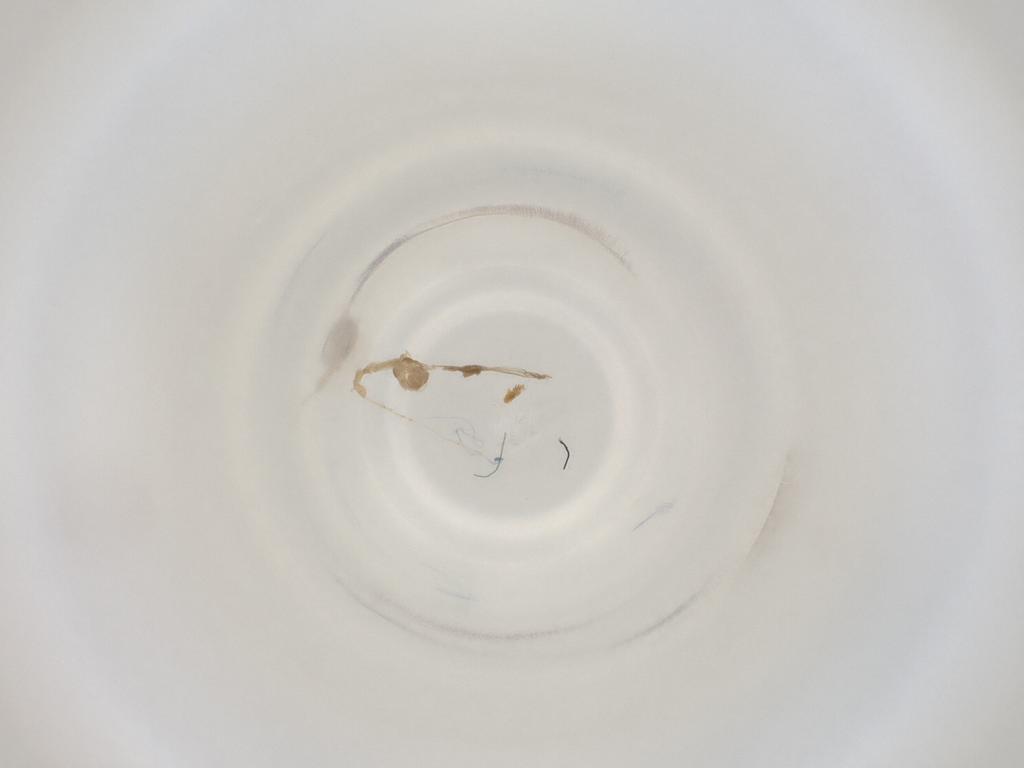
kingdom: Animalia
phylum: Arthropoda
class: Insecta
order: Diptera
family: Cecidomyiidae
